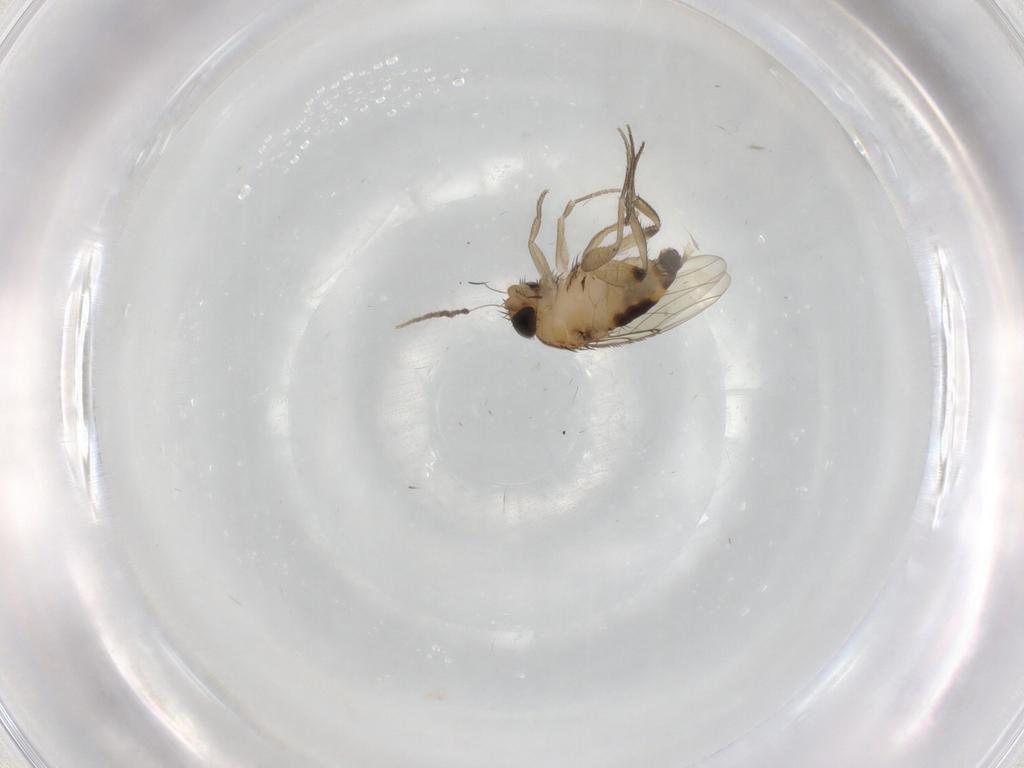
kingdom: Animalia
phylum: Arthropoda
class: Insecta
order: Diptera
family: Phoridae
